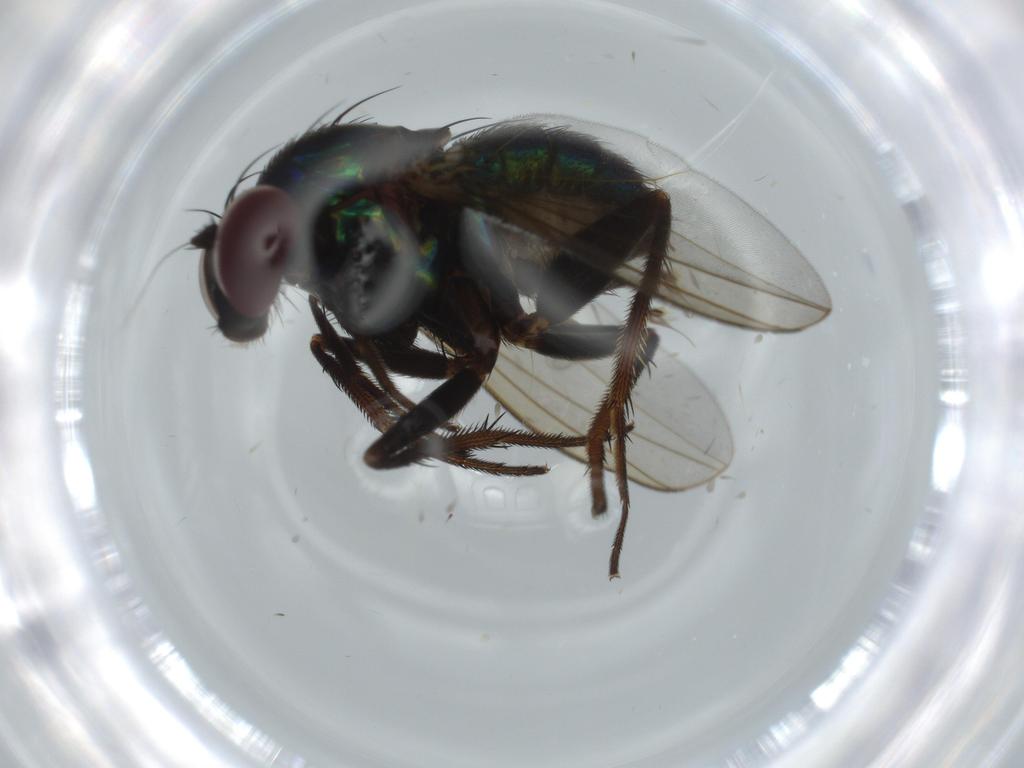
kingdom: Animalia
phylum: Arthropoda
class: Insecta
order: Diptera
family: Dolichopodidae
